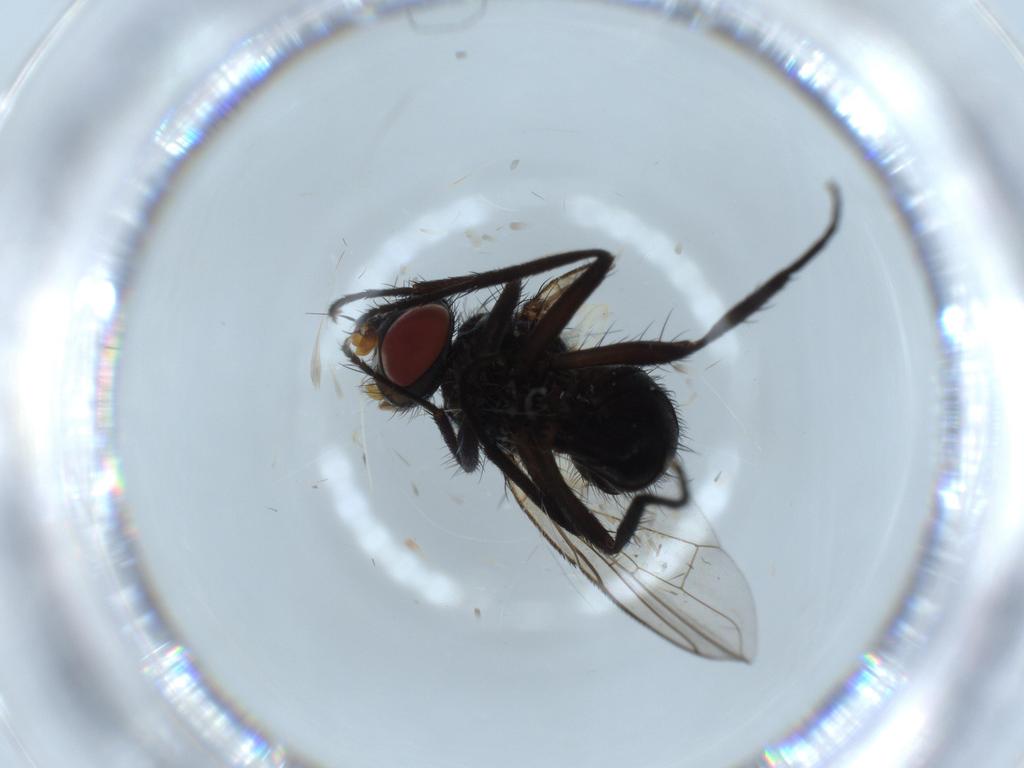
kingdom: Animalia
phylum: Arthropoda
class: Insecta
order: Diptera
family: Tachinidae
